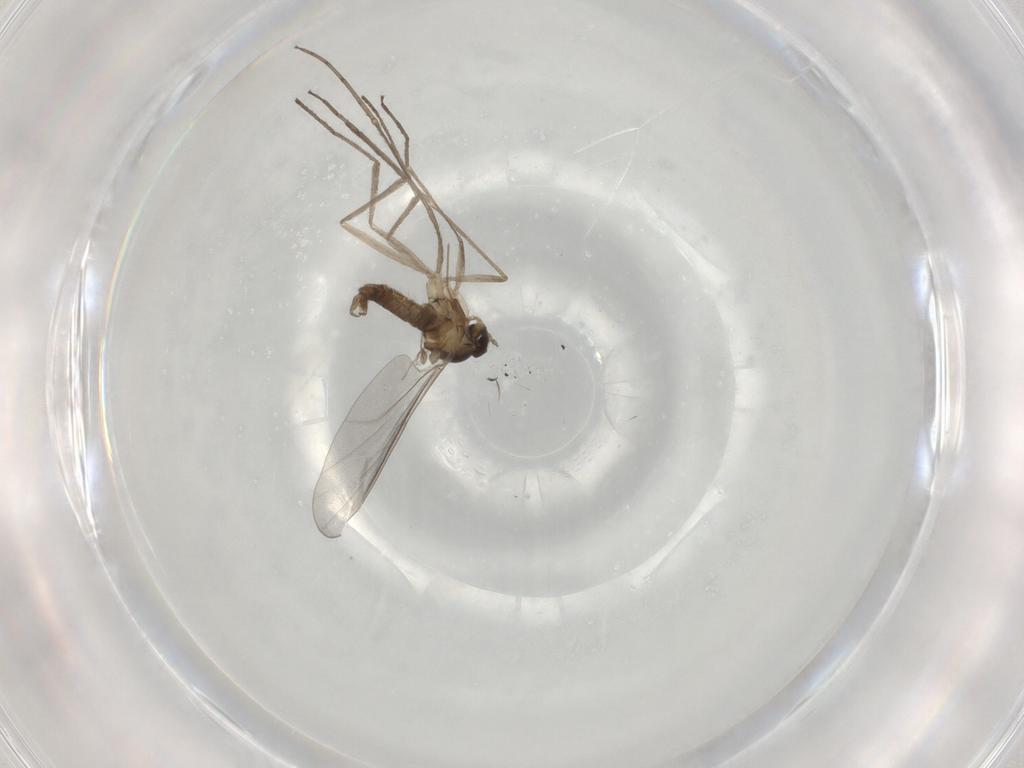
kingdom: Animalia
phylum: Arthropoda
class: Insecta
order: Diptera
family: Cecidomyiidae
